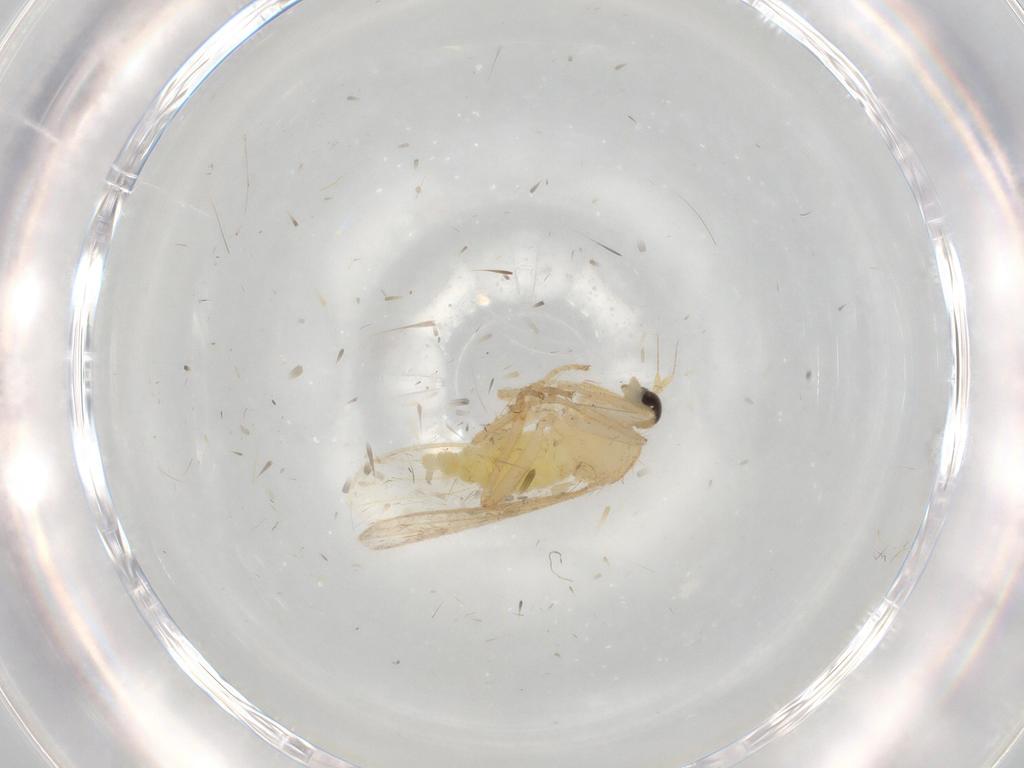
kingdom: Animalia
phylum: Arthropoda
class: Insecta
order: Diptera
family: Hybotidae
